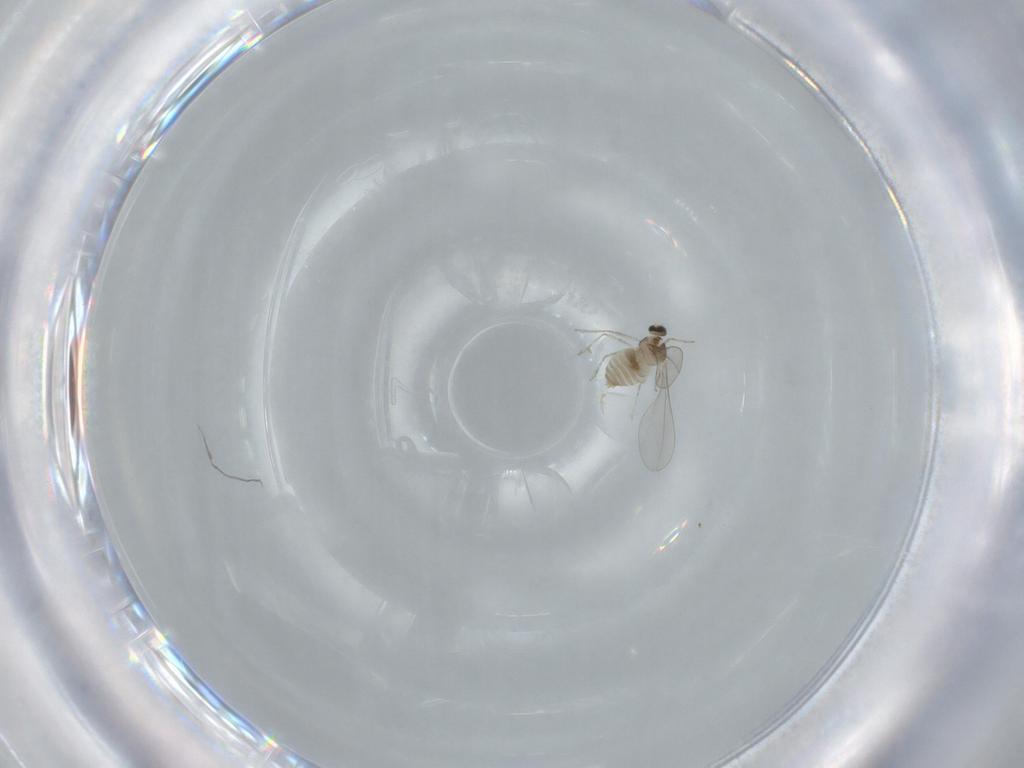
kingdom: Animalia
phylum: Arthropoda
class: Insecta
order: Diptera
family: Cecidomyiidae
